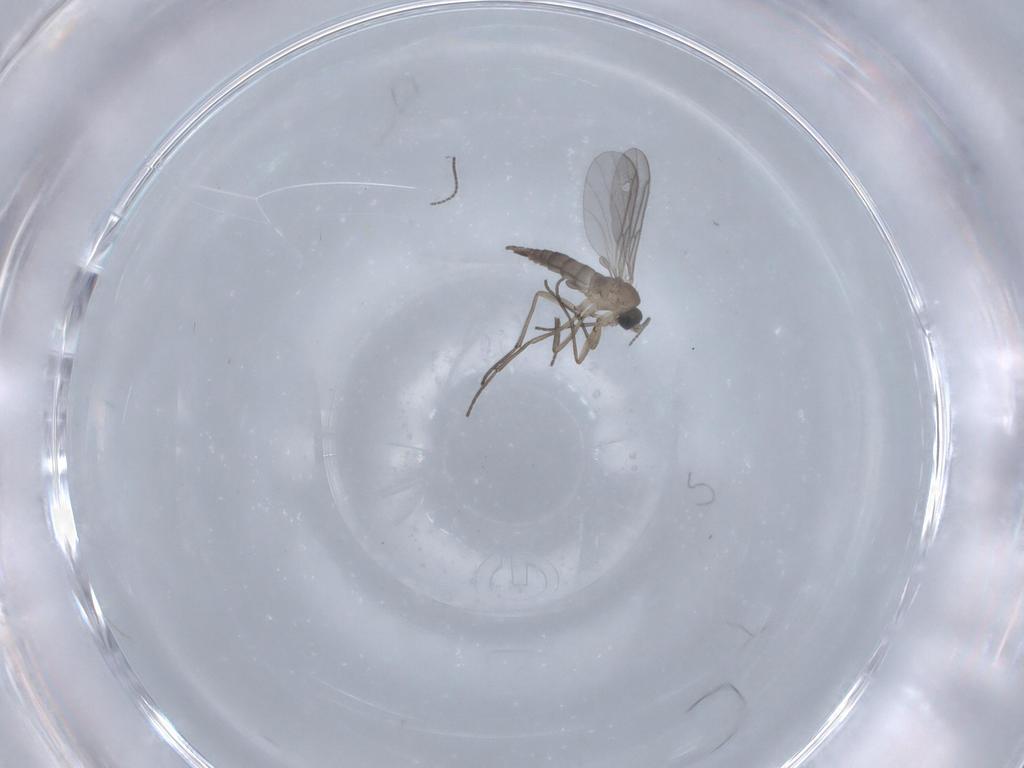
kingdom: Animalia
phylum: Arthropoda
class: Insecta
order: Diptera
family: Sciaridae
